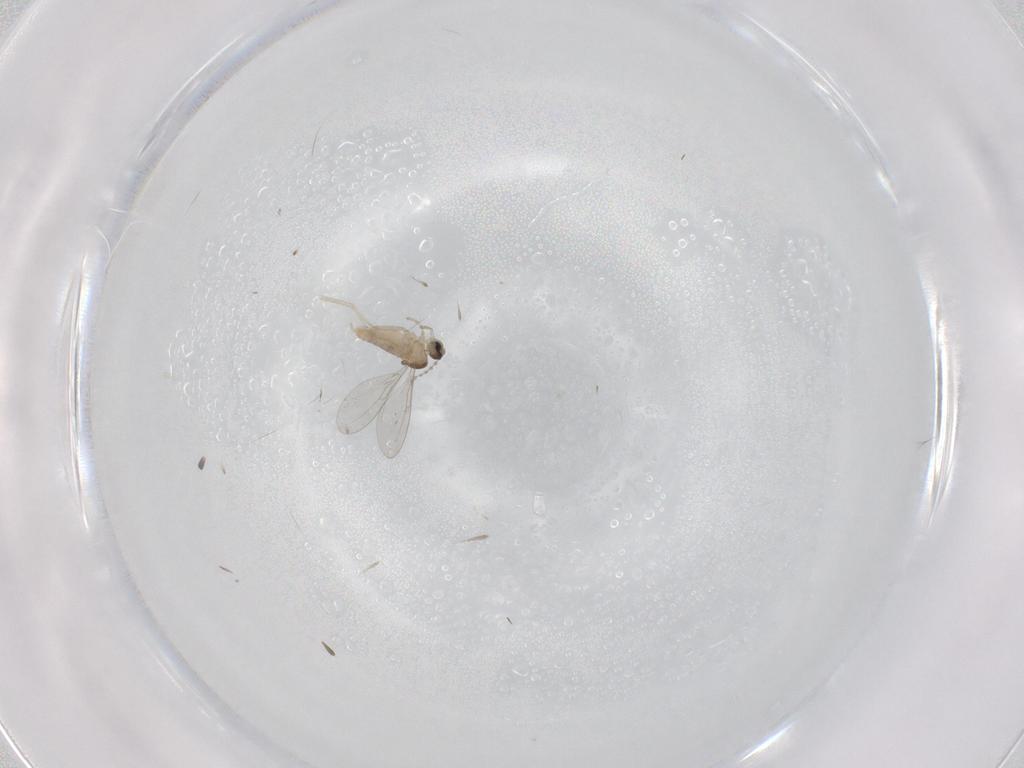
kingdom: Animalia
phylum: Arthropoda
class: Insecta
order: Diptera
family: Cecidomyiidae
